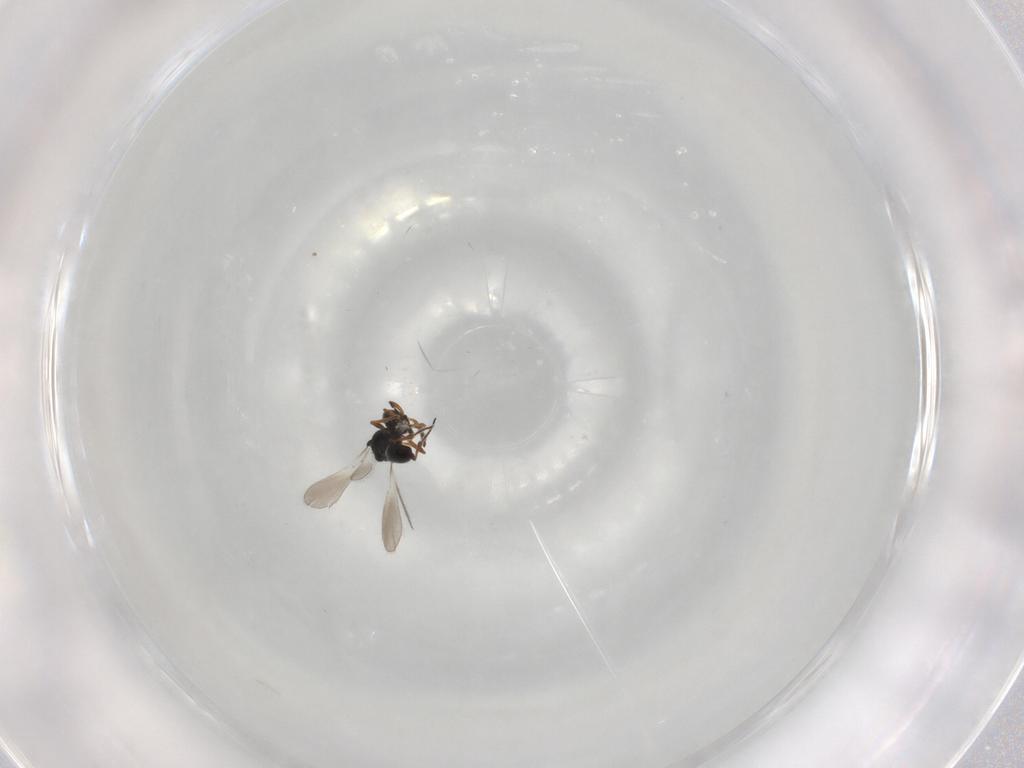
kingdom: Animalia
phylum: Arthropoda
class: Insecta
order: Hymenoptera
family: Platygastridae
